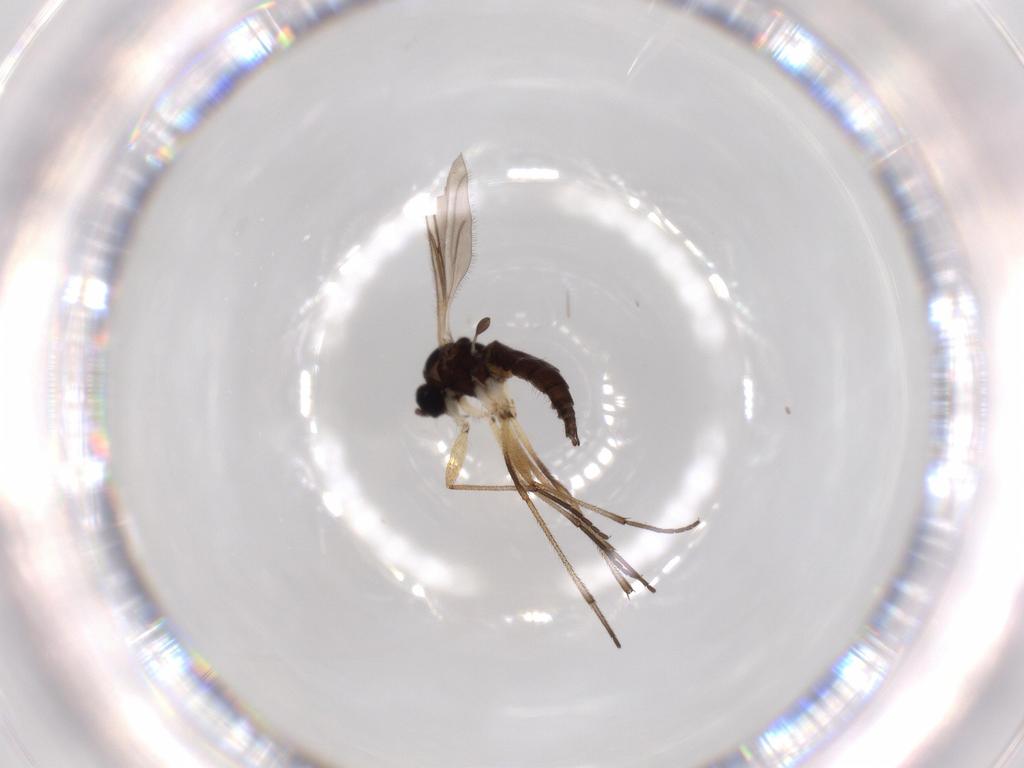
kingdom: Animalia
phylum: Arthropoda
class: Insecta
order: Diptera
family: Sciaridae
